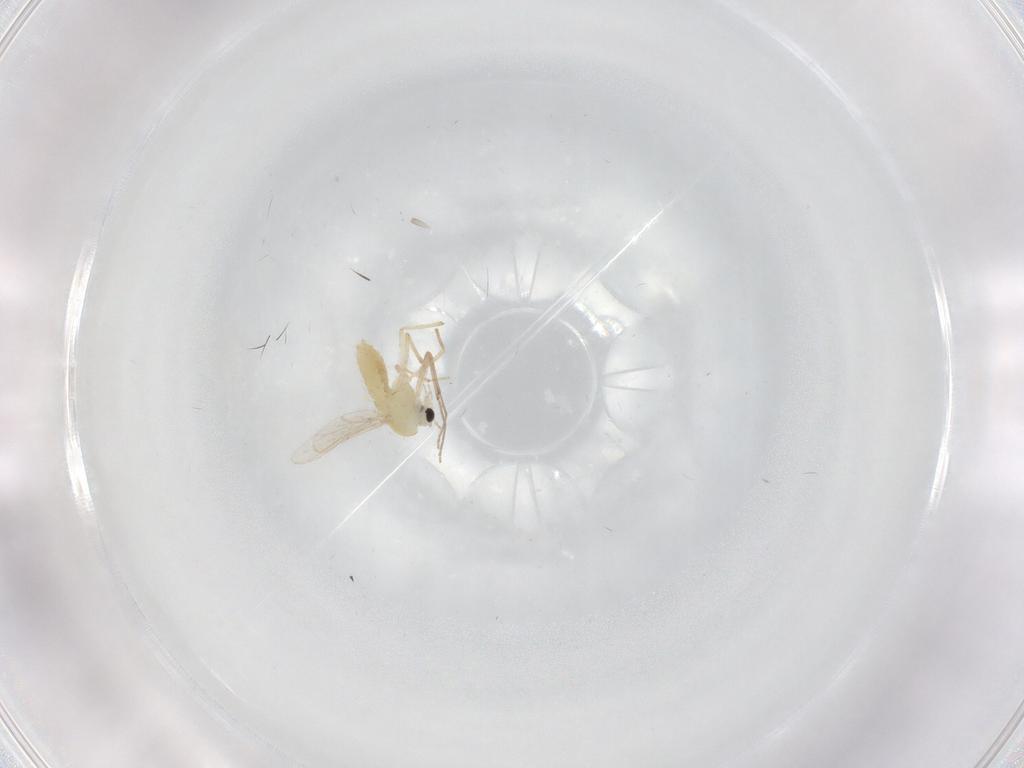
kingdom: Animalia
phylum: Arthropoda
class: Insecta
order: Diptera
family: Chironomidae
